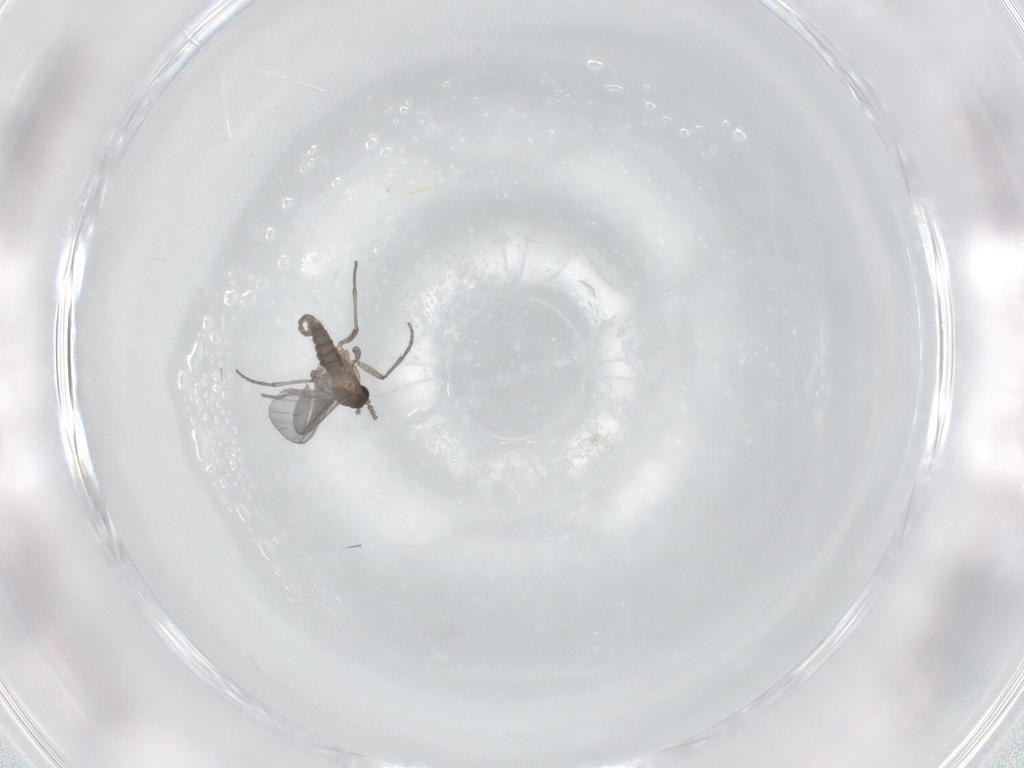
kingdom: Animalia
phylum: Arthropoda
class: Insecta
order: Diptera
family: Sciaridae
